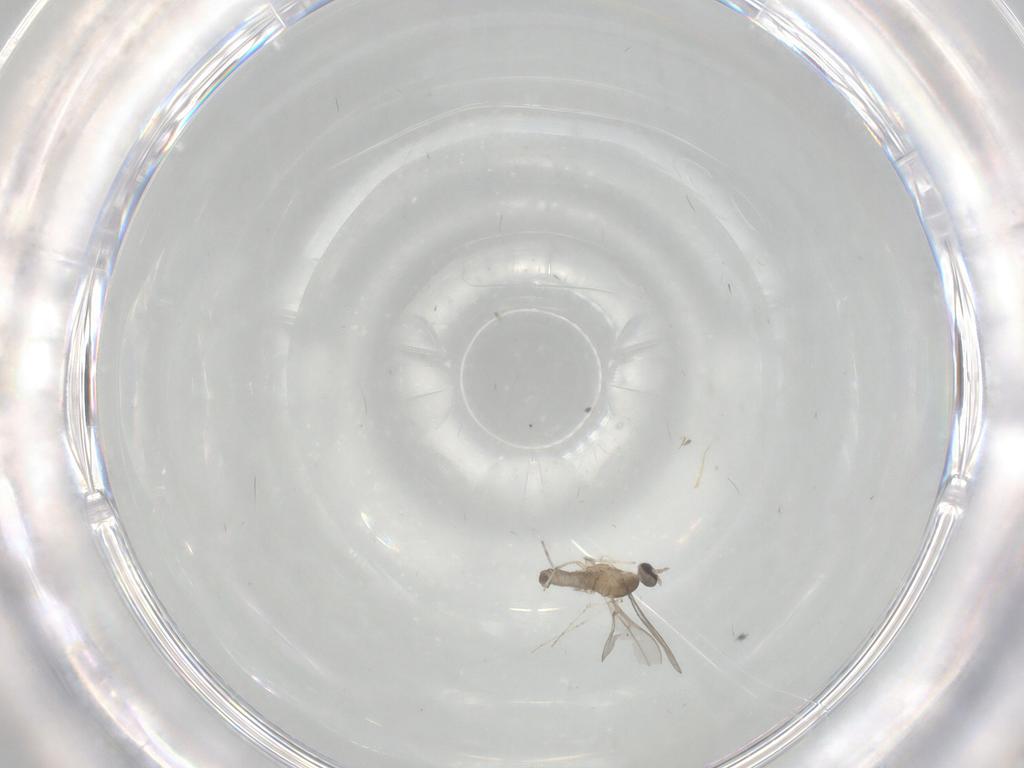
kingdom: Animalia
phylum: Arthropoda
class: Insecta
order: Diptera
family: Cecidomyiidae
